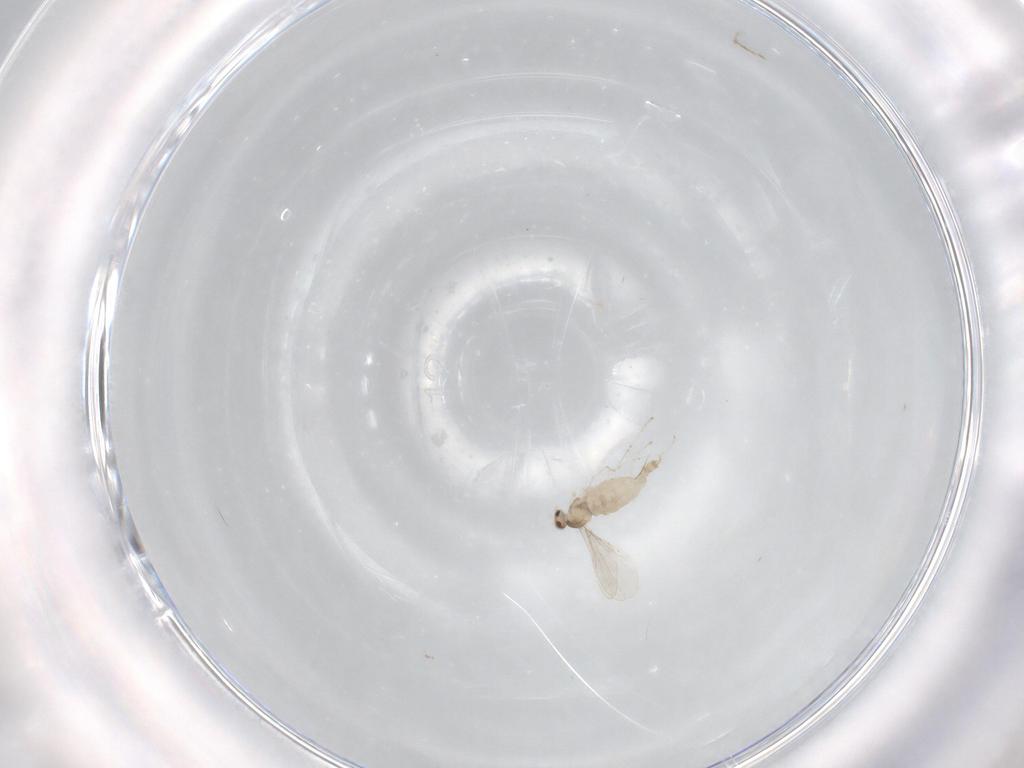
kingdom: Animalia
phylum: Arthropoda
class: Insecta
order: Diptera
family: Cecidomyiidae
